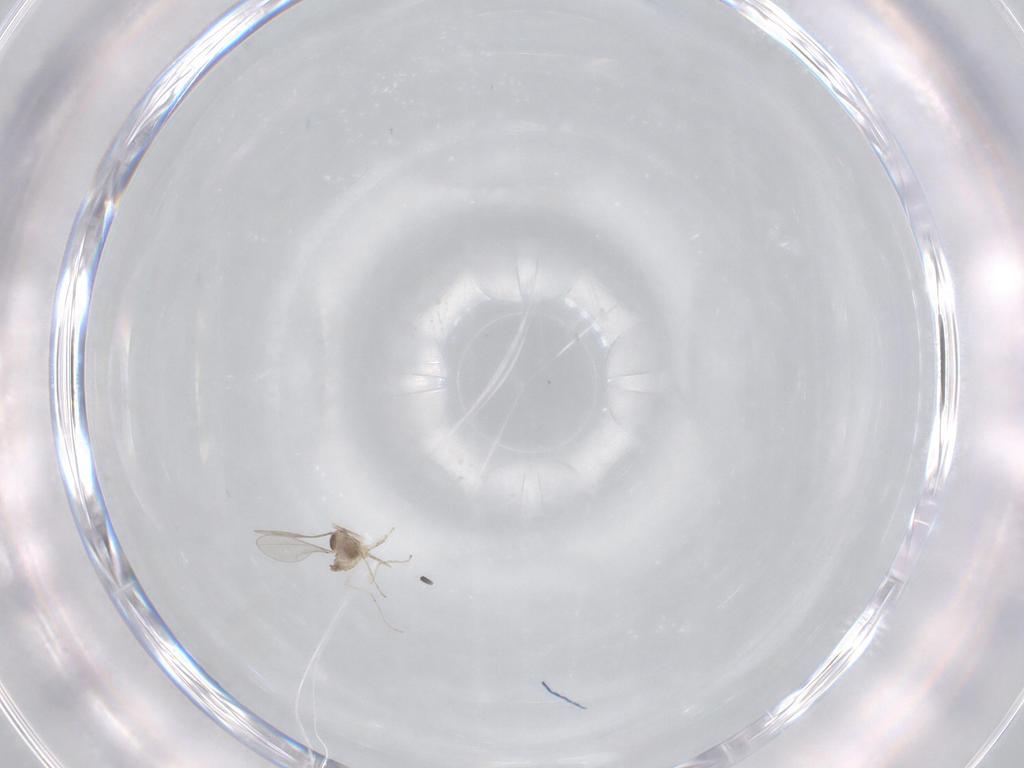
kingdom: Animalia
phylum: Arthropoda
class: Insecta
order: Diptera
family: Cecidomyiidae
